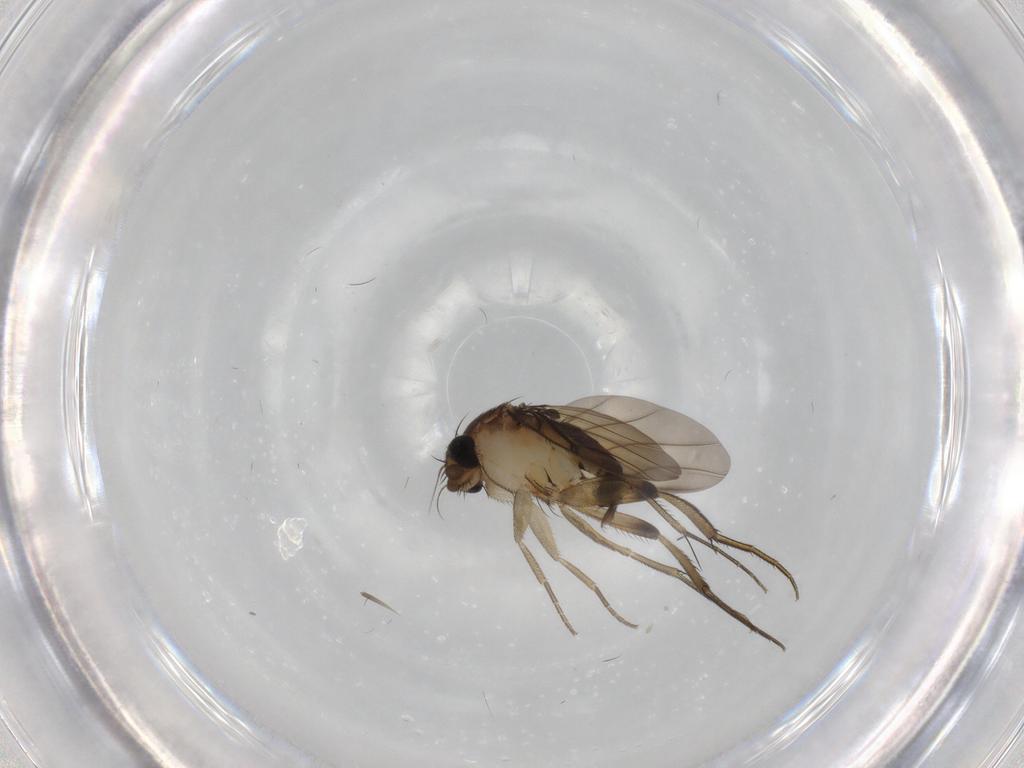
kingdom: Animalia
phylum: Arthropoda
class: Insecta
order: Diptera
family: Phoridae
